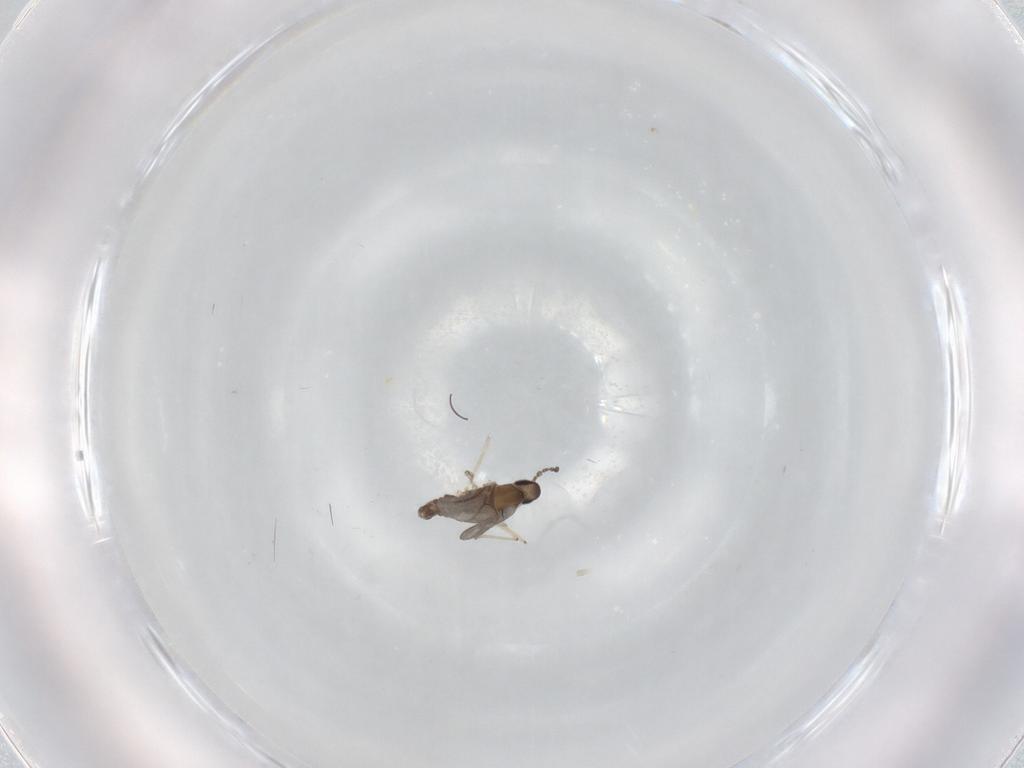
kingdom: Animalia
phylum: Arthropoda
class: Insecta
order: Diptera
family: Cecidomyiidae
